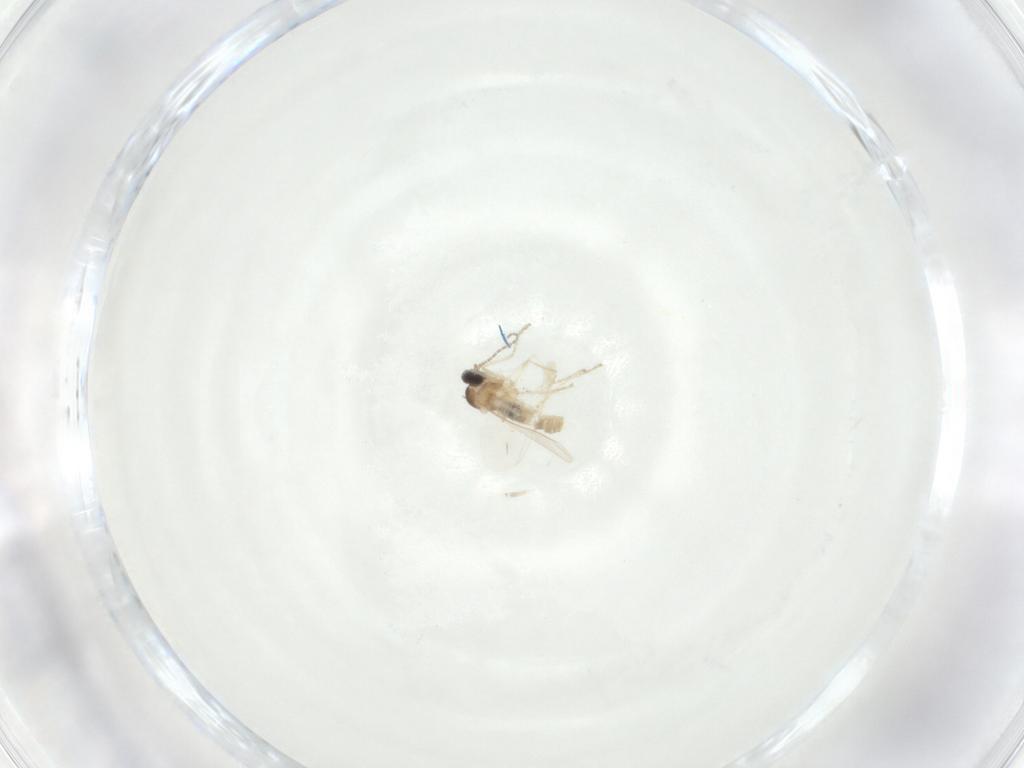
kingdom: Animalia
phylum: Arthropoda
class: Insecta
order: Diptera
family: Cecidomyiidae
